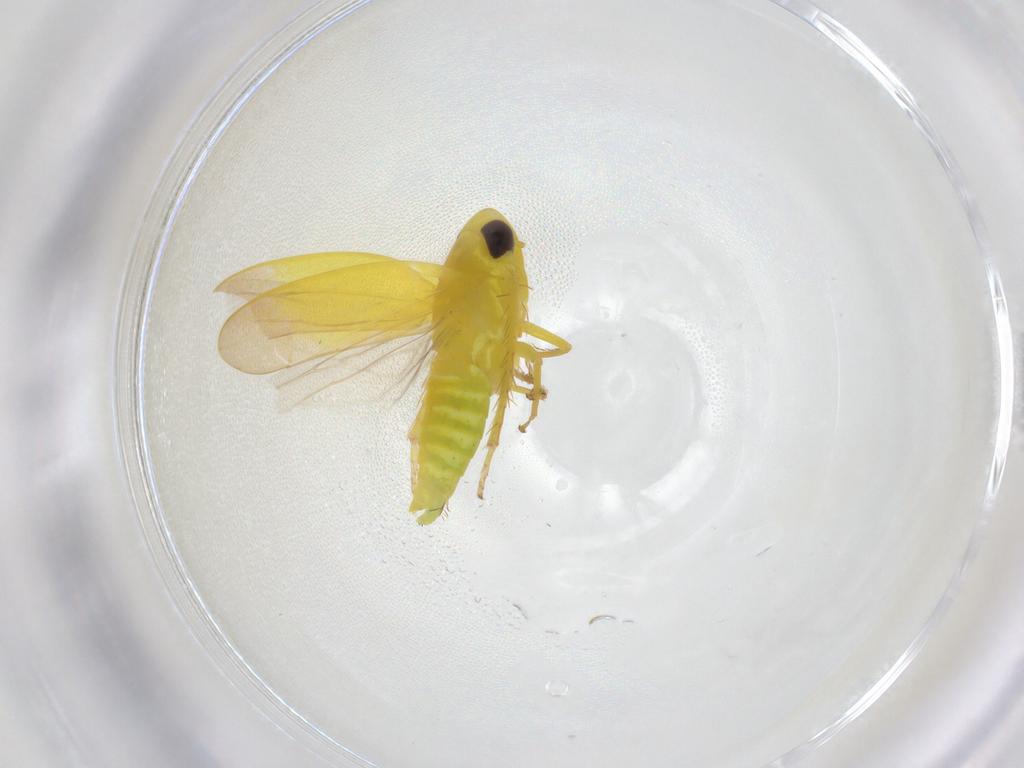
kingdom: Animalia
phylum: Arthropoda
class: Insecta
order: Hemiptera
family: Cicadellidae
